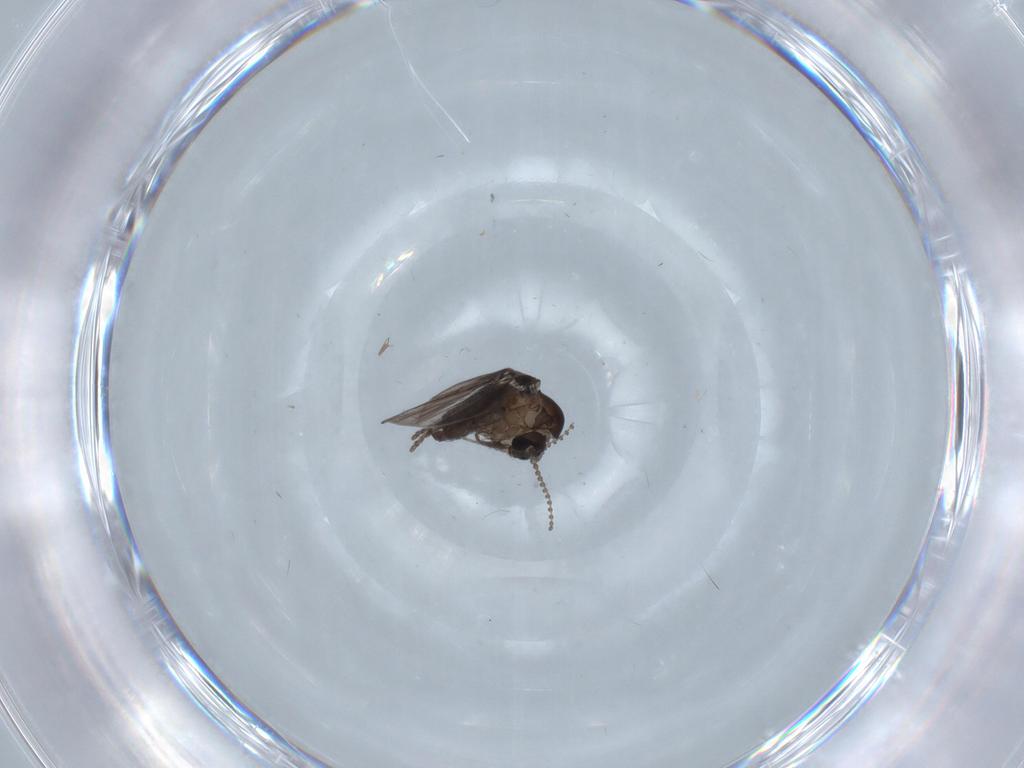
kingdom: Animalia
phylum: Arthropoda
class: Insecta
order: Diptera
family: Psychodidae
